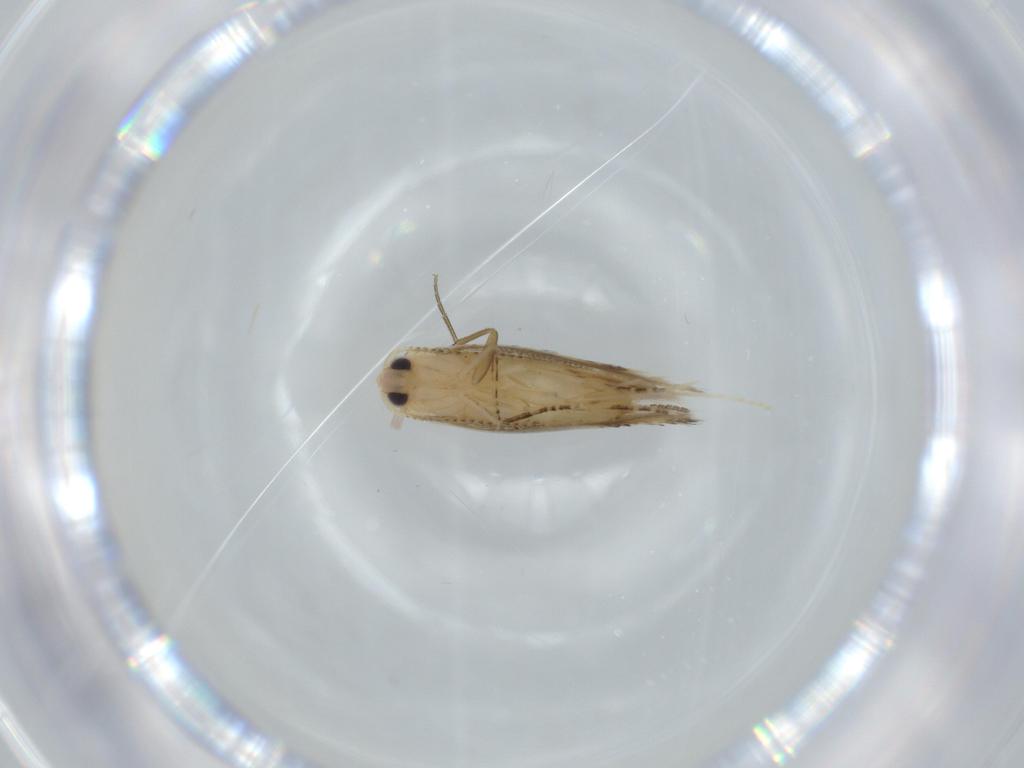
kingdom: Animalia
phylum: Arthropoda
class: Insecta
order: Lepidoptera
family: Bucculatricidae
